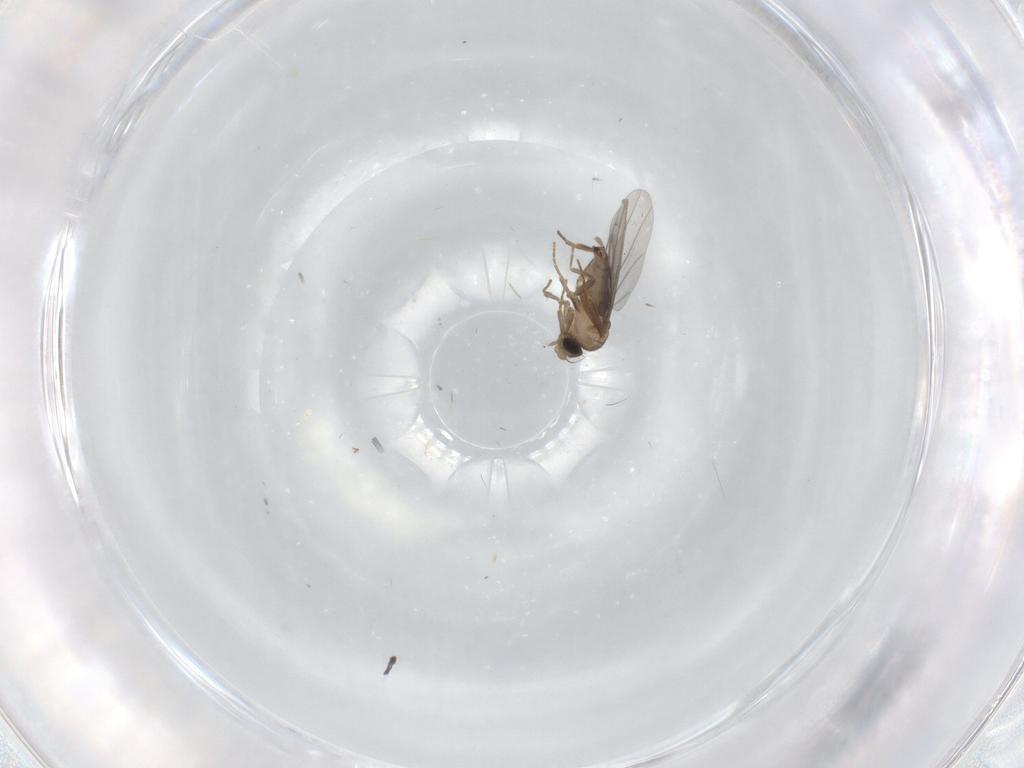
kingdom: Animalia
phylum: Arthropoda
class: Insecta
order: Diptera
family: Cecidomyiidae
